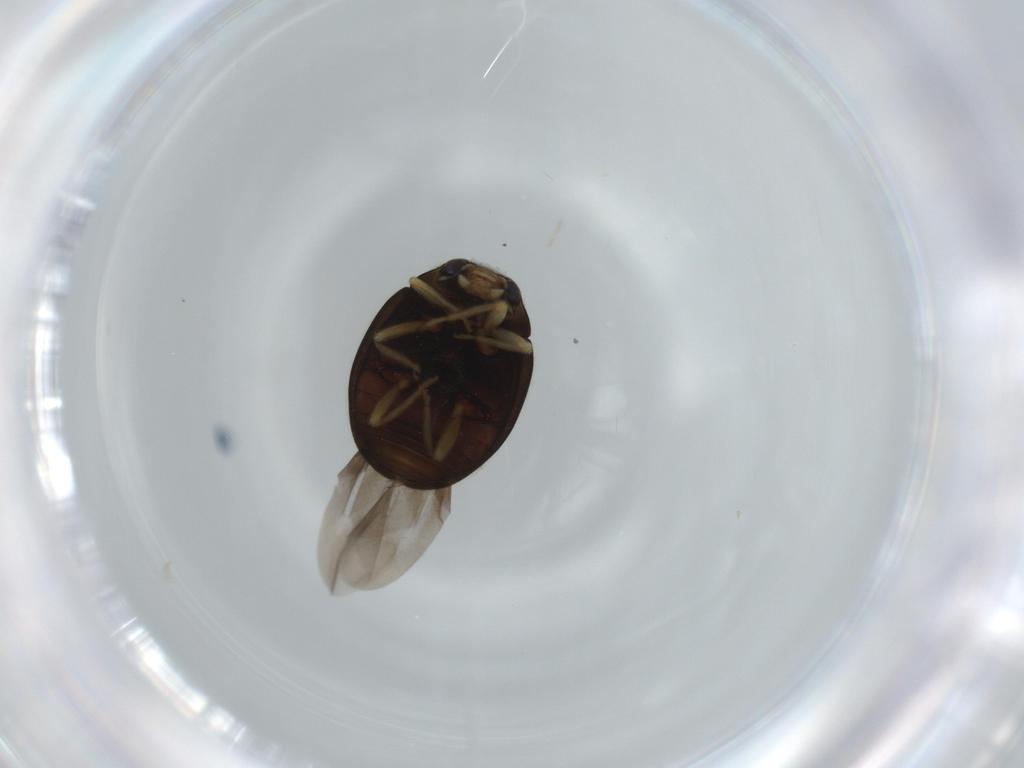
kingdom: Animalia
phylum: Arthropoda
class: Insecta
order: Coleoptera
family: Coccinellidae
